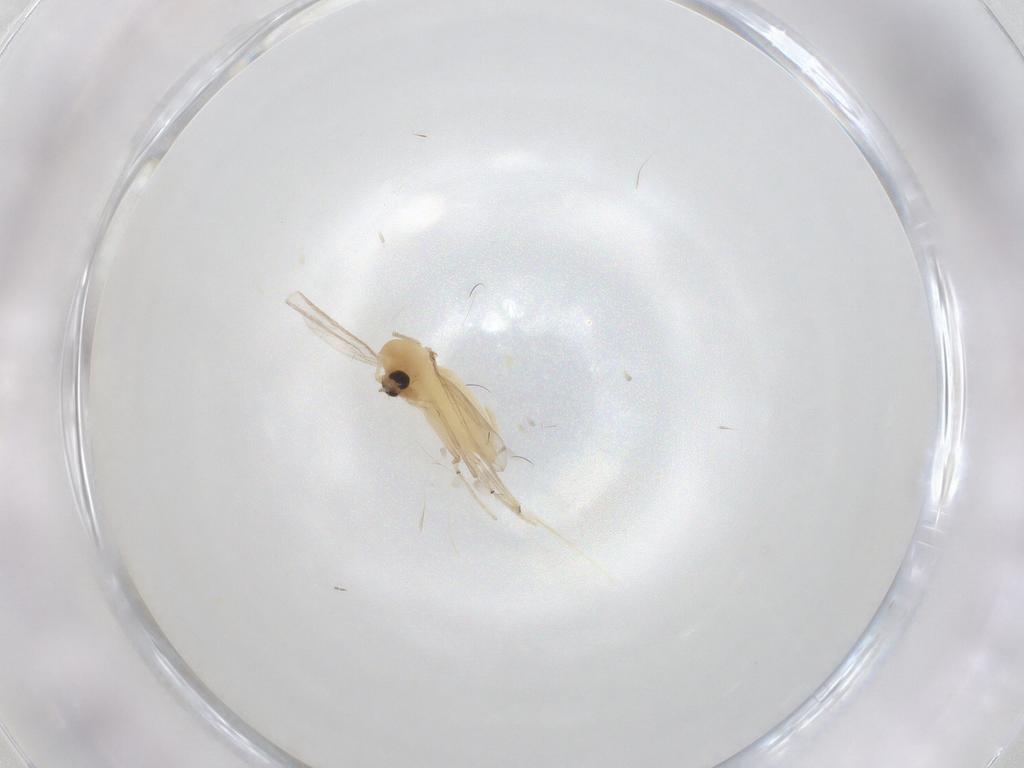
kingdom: Animalia
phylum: Arthropoda
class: Insecta
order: Diptera
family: Chironomidae
